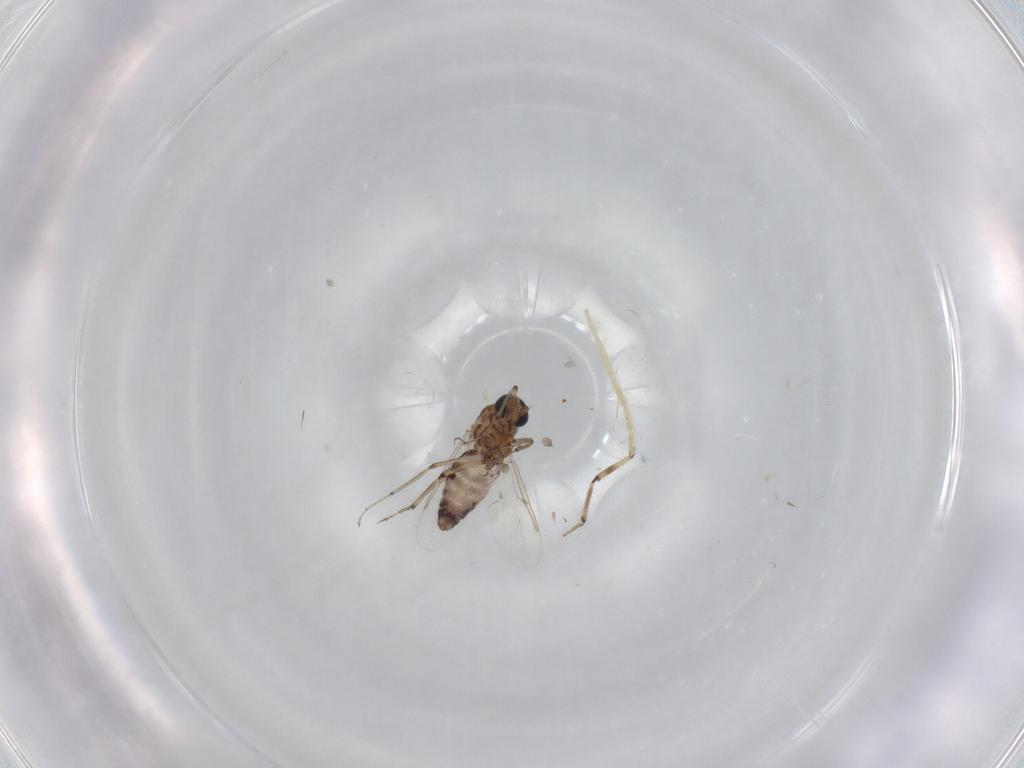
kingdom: Animalia
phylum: Arthropoda
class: Insecta
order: Diptera
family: Ceratopogonidae
